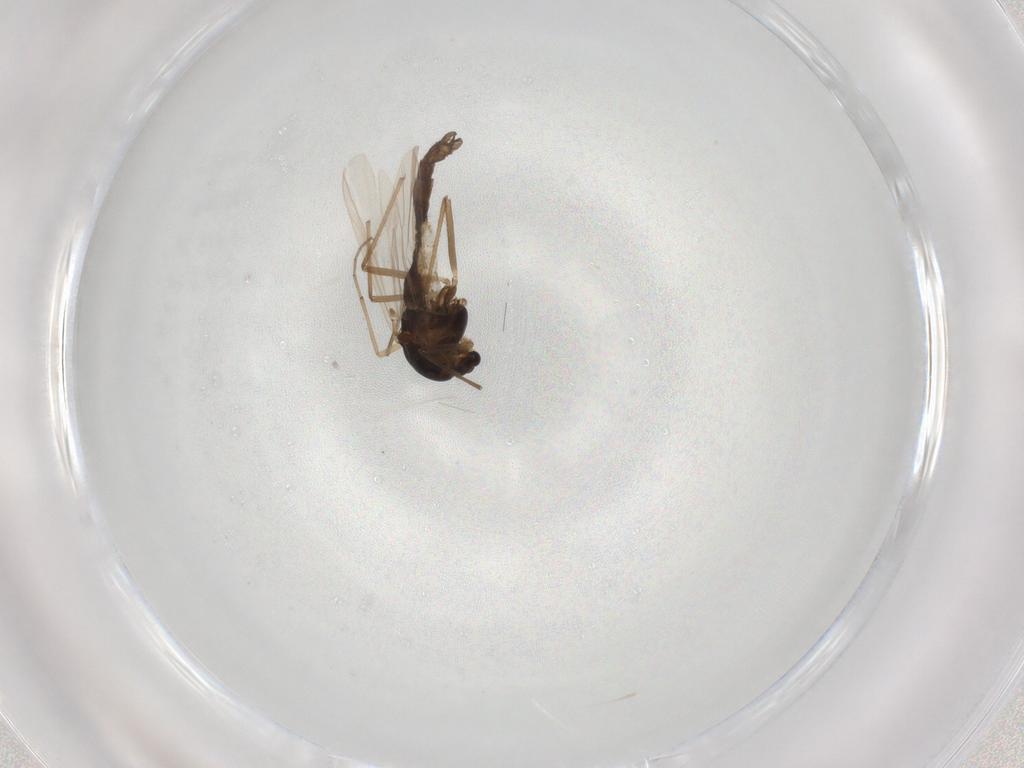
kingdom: Animalia
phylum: Arthropoda
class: Insecta
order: Diptera
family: Chironomidae
